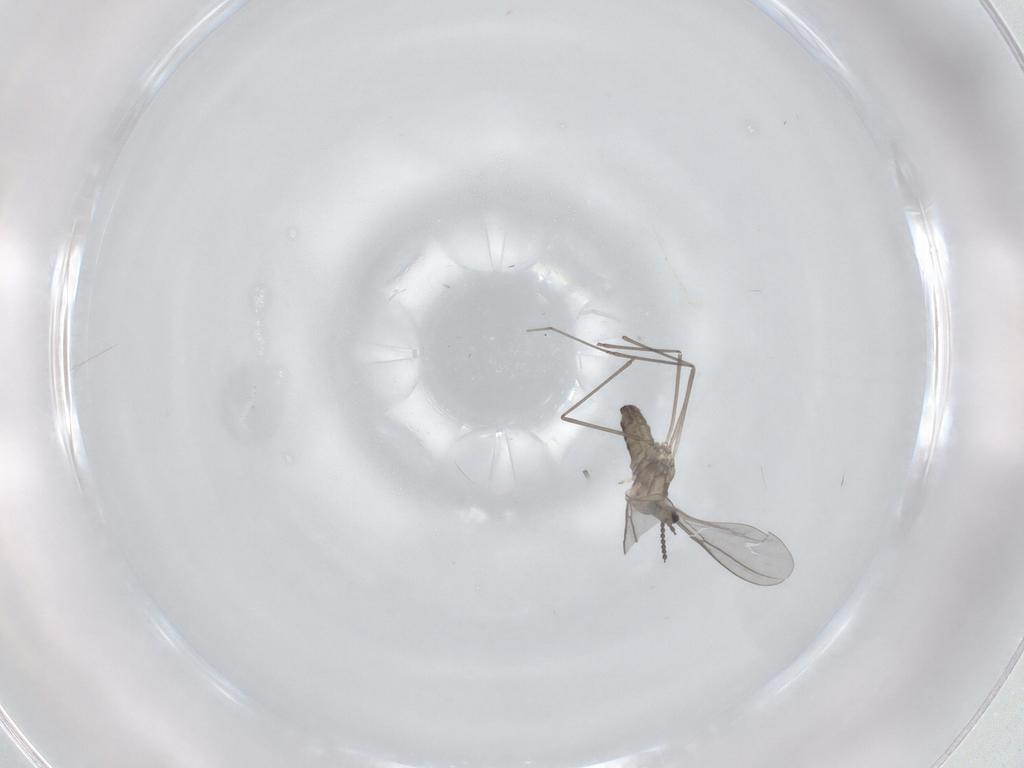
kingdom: Animalia
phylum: Arthropoda
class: Insecta
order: Diptera
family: Cecidomyiidae
